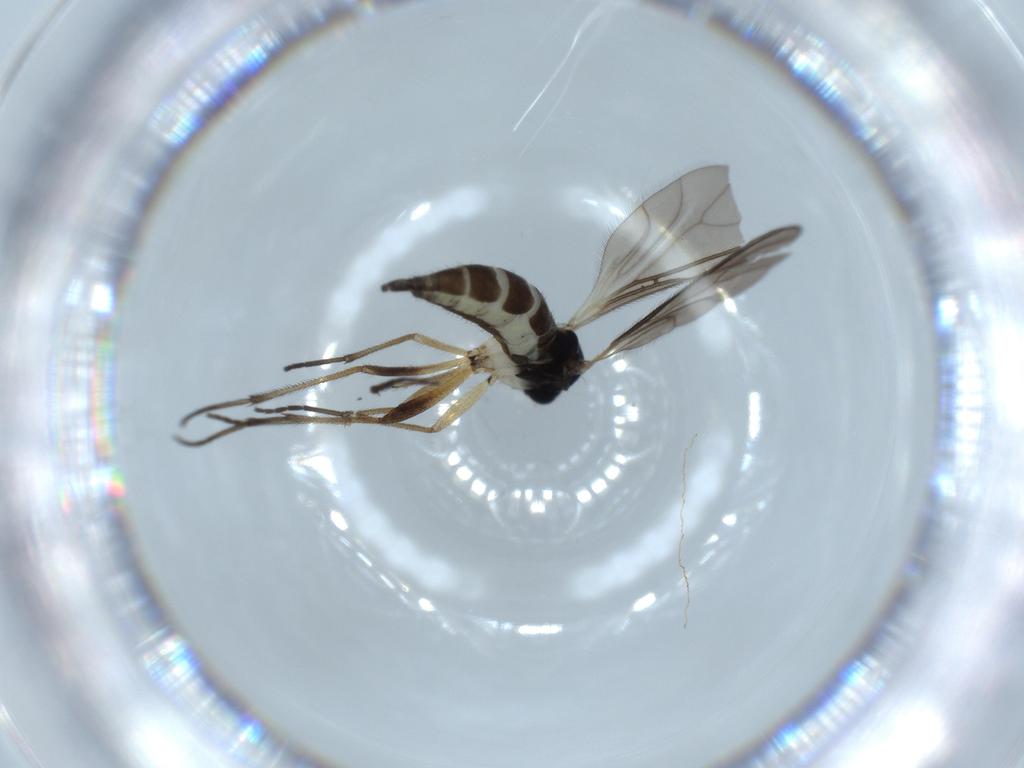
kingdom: Animalia
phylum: Arthropoda
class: Insecta
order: Diptera
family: Sciaridae
